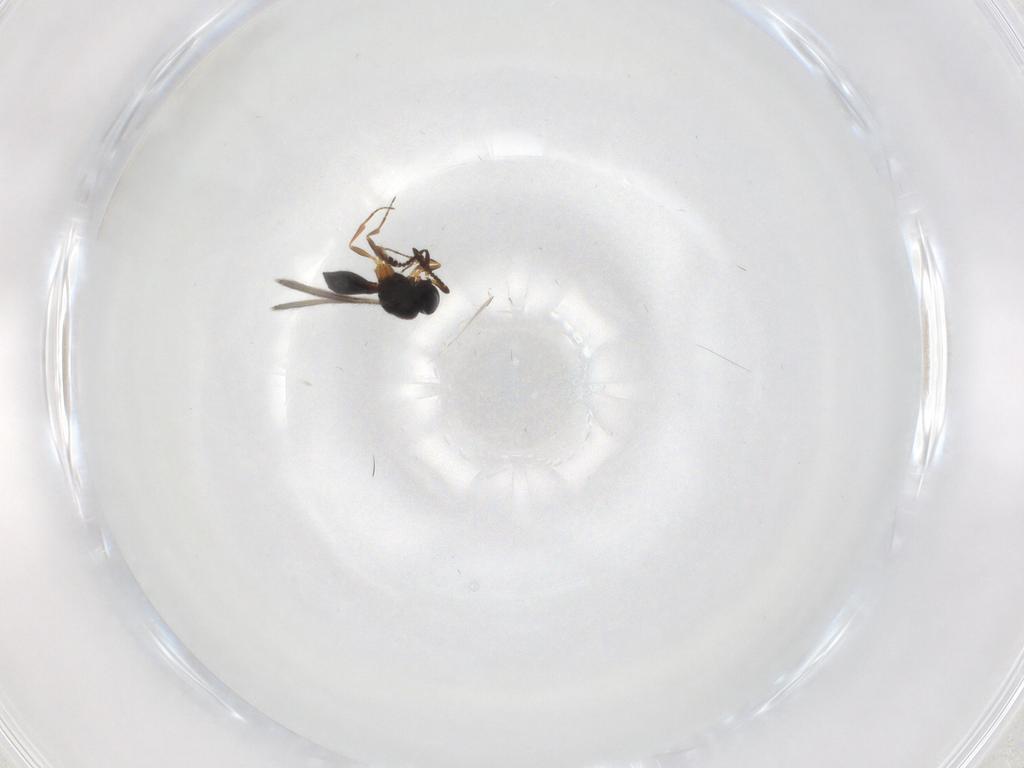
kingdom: Animalia
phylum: Arthropoda
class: Insecta
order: Hymenoptera
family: Scelionidae
